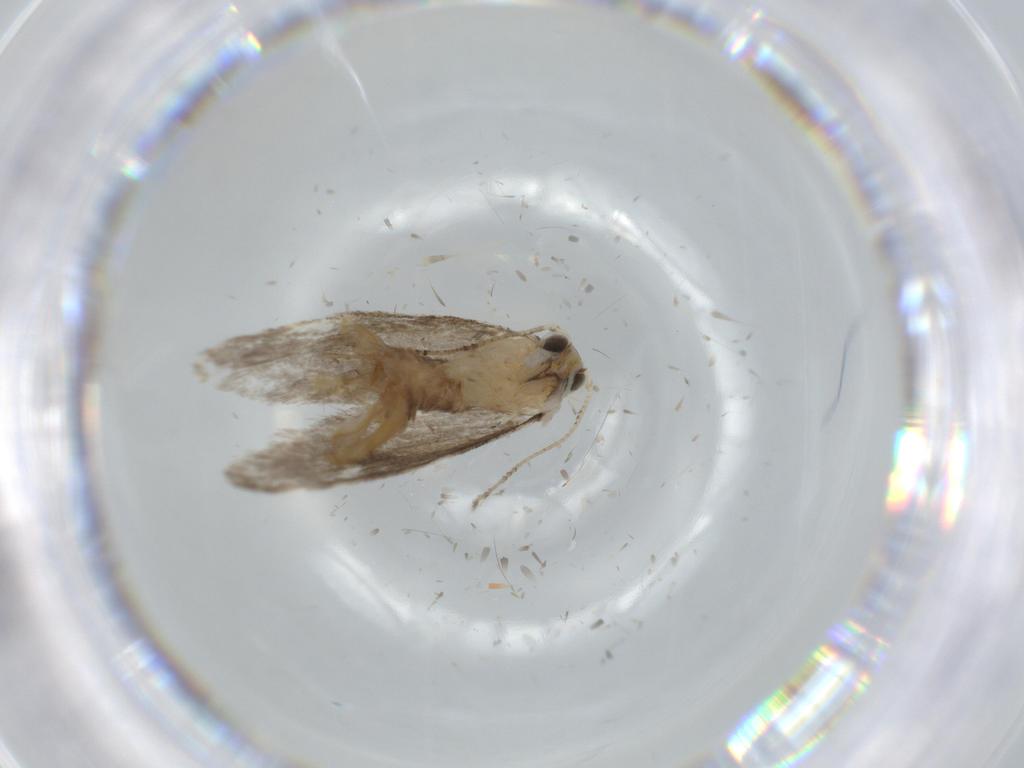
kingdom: Animalia
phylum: Arthropoda
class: Insecta
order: Lepidoptera
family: Tineidae
